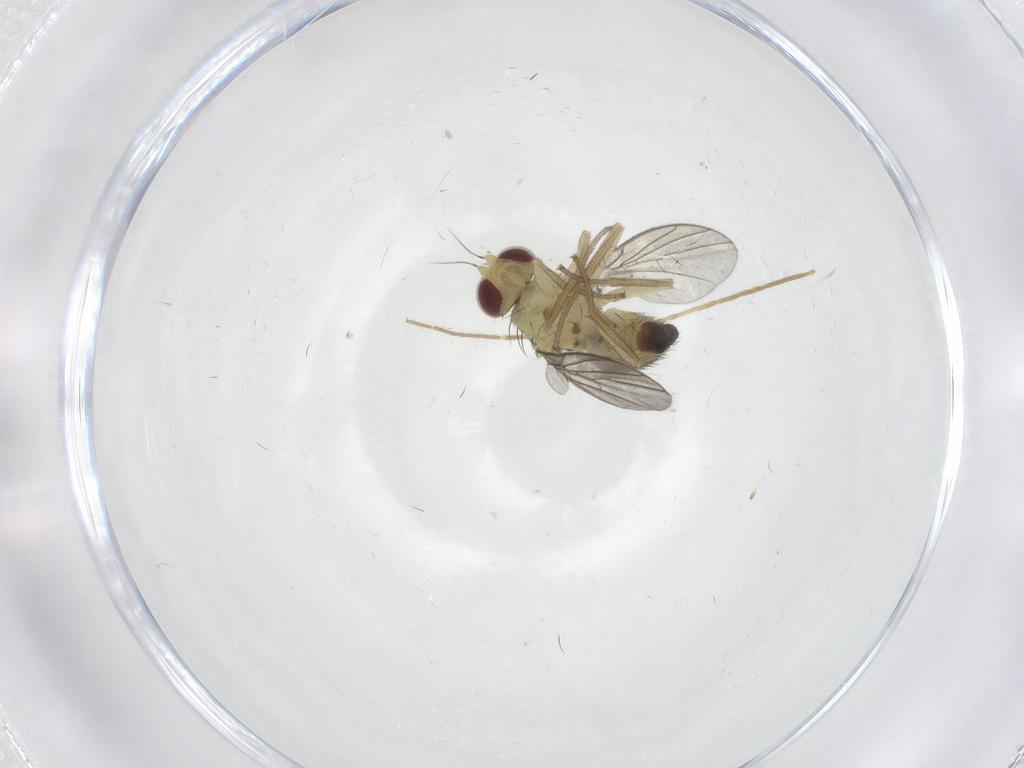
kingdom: Animalia
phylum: Arthropoda
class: Insecta
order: Diptera
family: Agromyzidae
